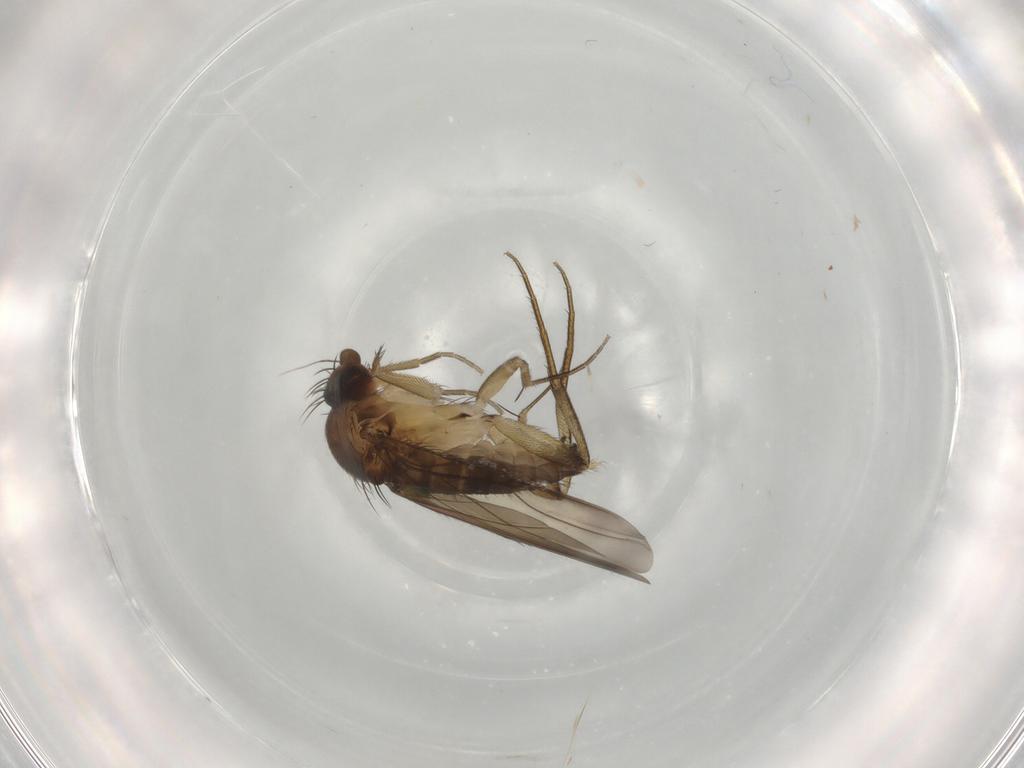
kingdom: Animalia
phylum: Arthropoda
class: Insecta
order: Diptera
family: Phoridae
